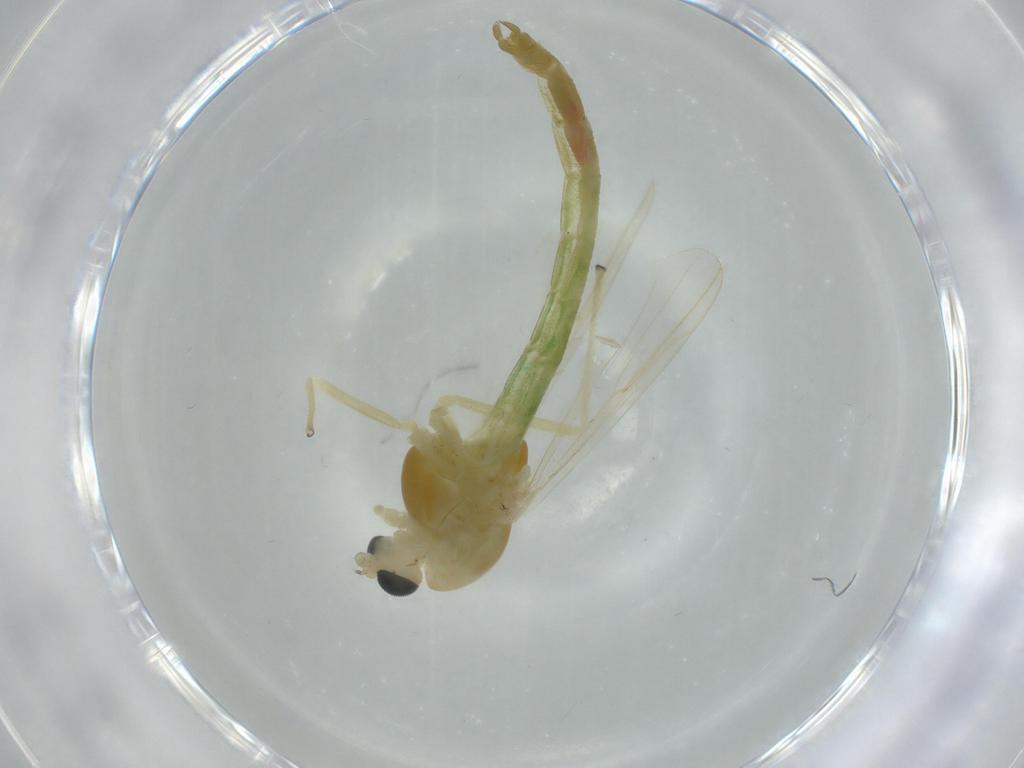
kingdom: Animalia
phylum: Arthropoda
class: Insecta
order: Diptera
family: Chironomidae
